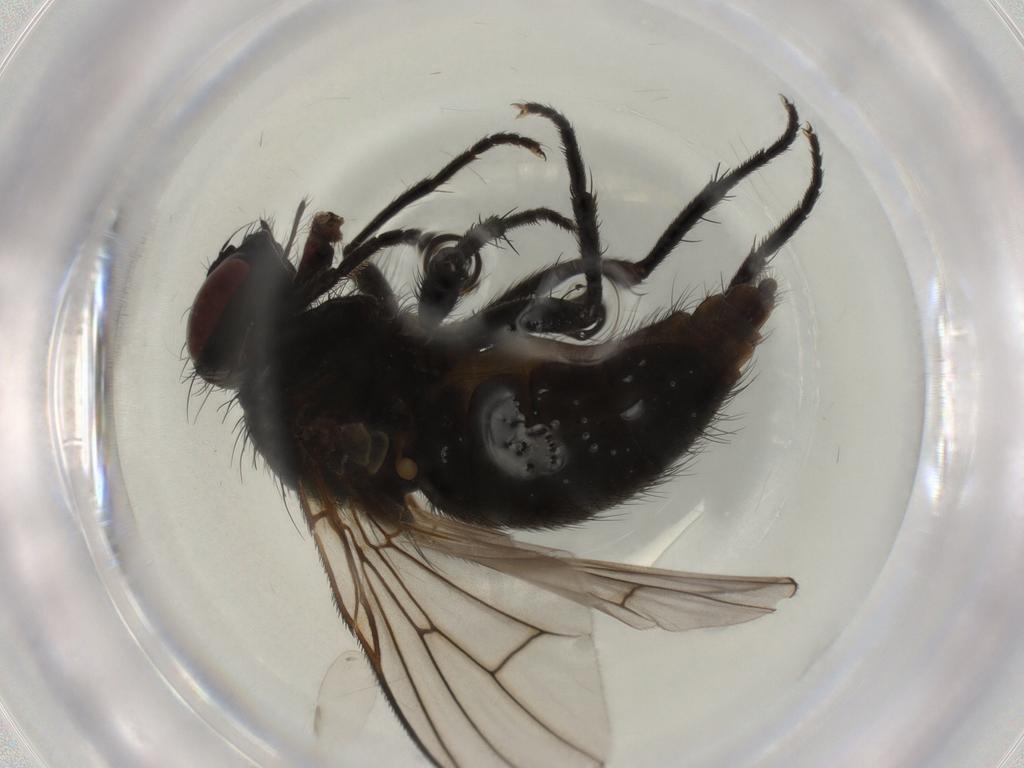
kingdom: Animalia
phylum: Arthropoda
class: Insecta
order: Diptera
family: Muscidae
